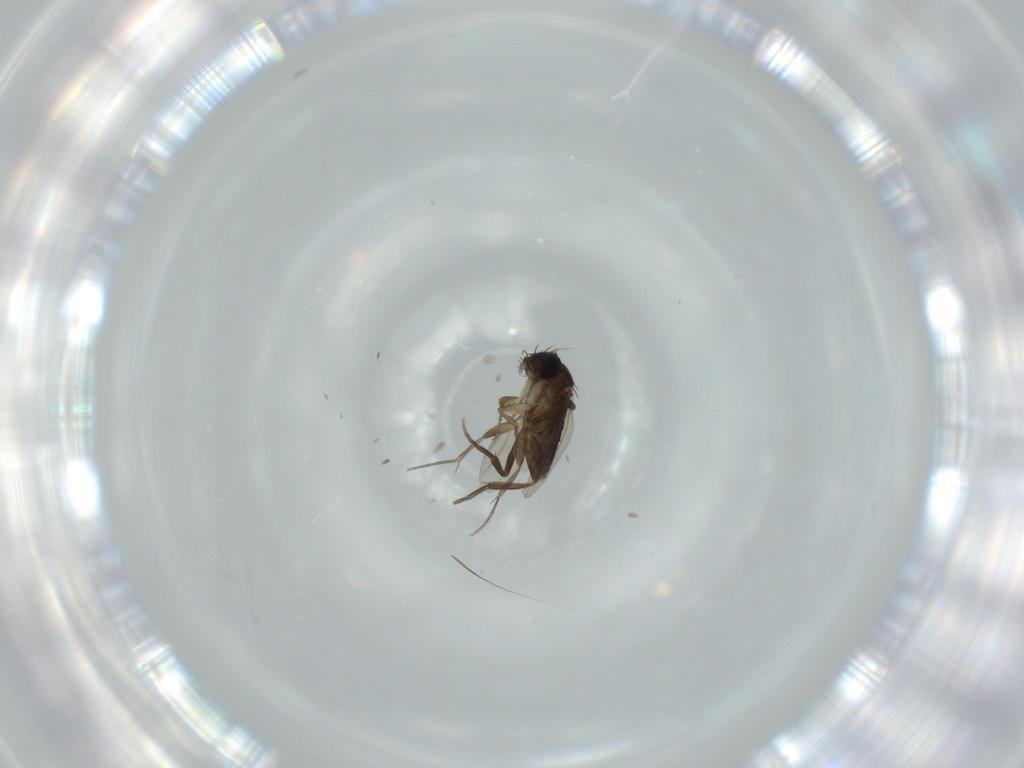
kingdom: Animalia
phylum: Arthropoda
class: Insecta
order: Diptera
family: Phoridae
